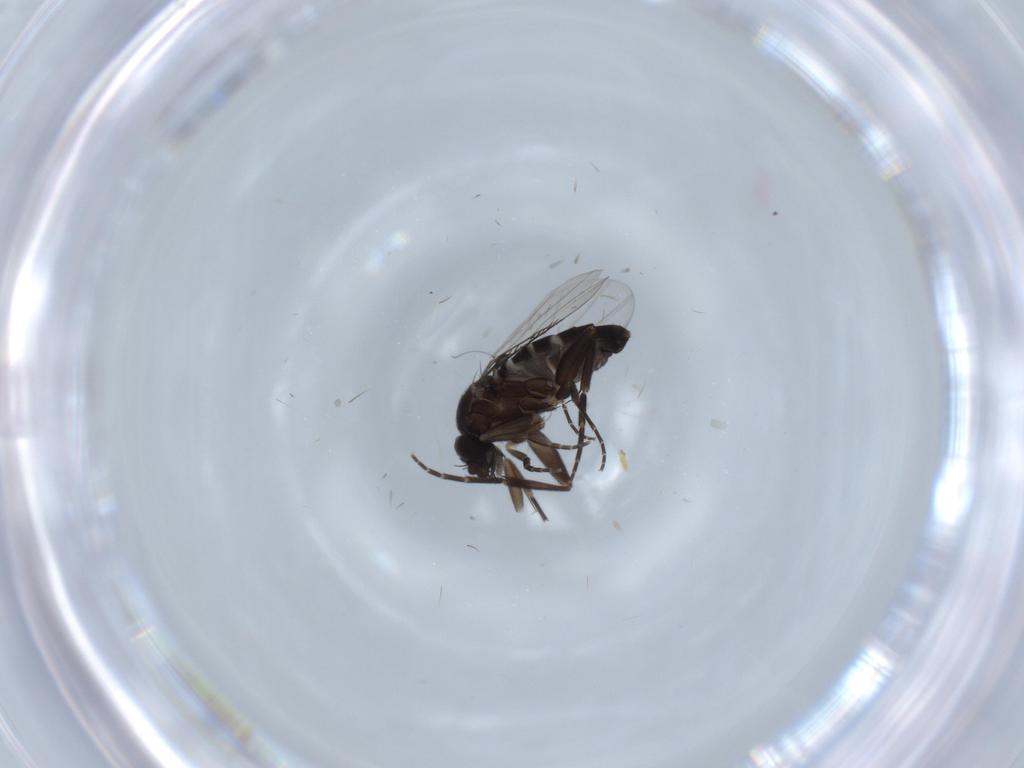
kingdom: Animalia
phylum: Arthropoda
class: Insecta
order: Diptera
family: Phoridae
